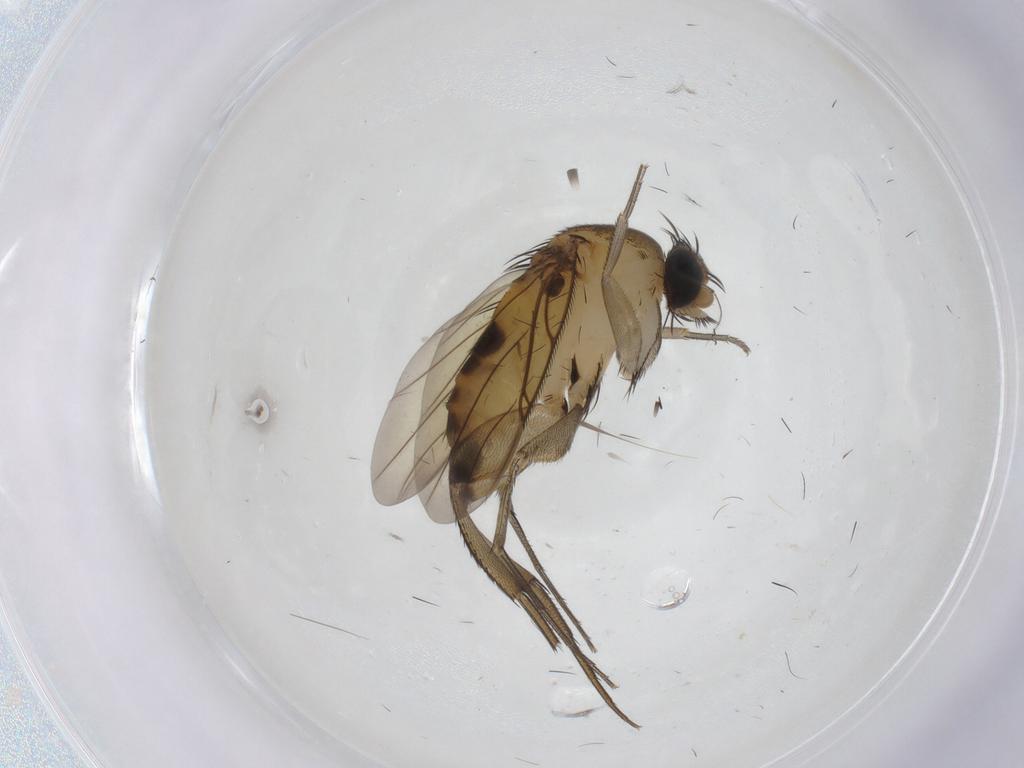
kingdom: Animalia
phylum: Arthropoda
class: Insecta
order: Diptera
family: Phoridae
